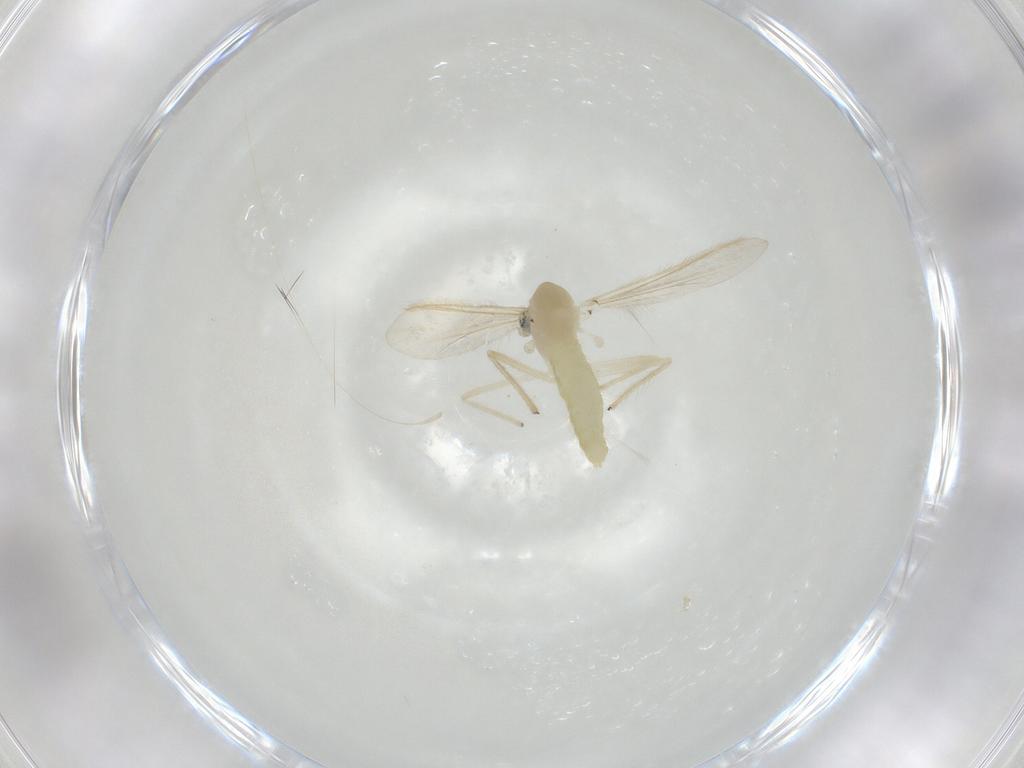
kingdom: Animalia
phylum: Arthropoda
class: Insecta
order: Diptera
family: Chironomidae
